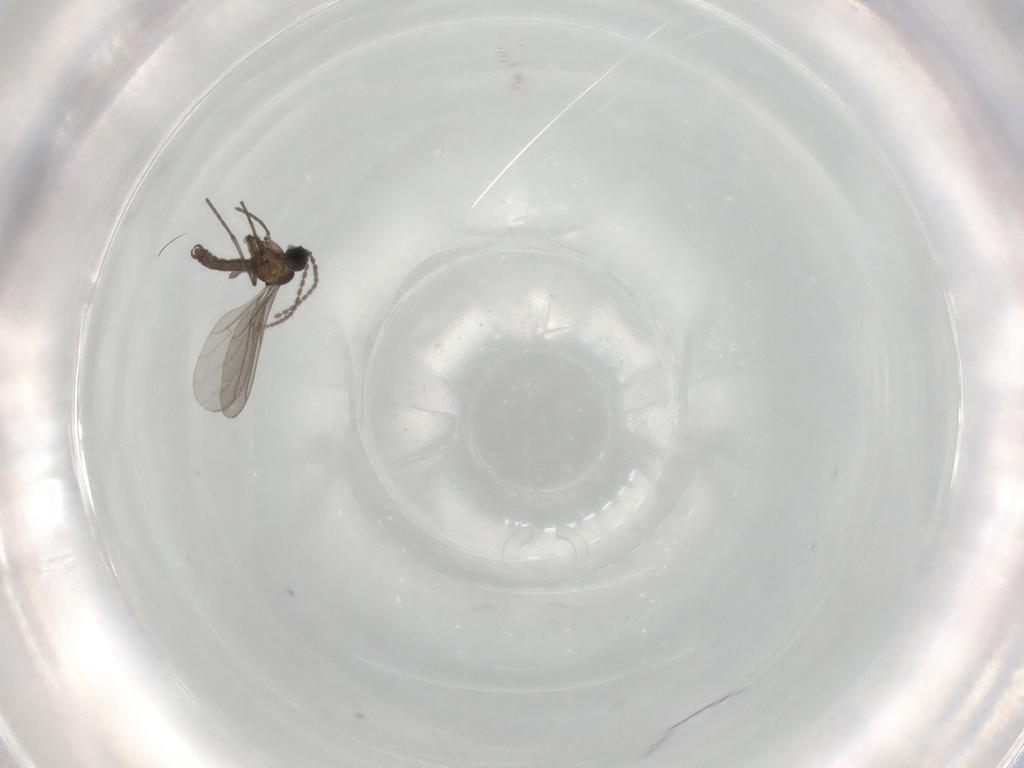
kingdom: Animalia
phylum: Arthropoda
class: Insecta
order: Diptera
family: Sciaridae
